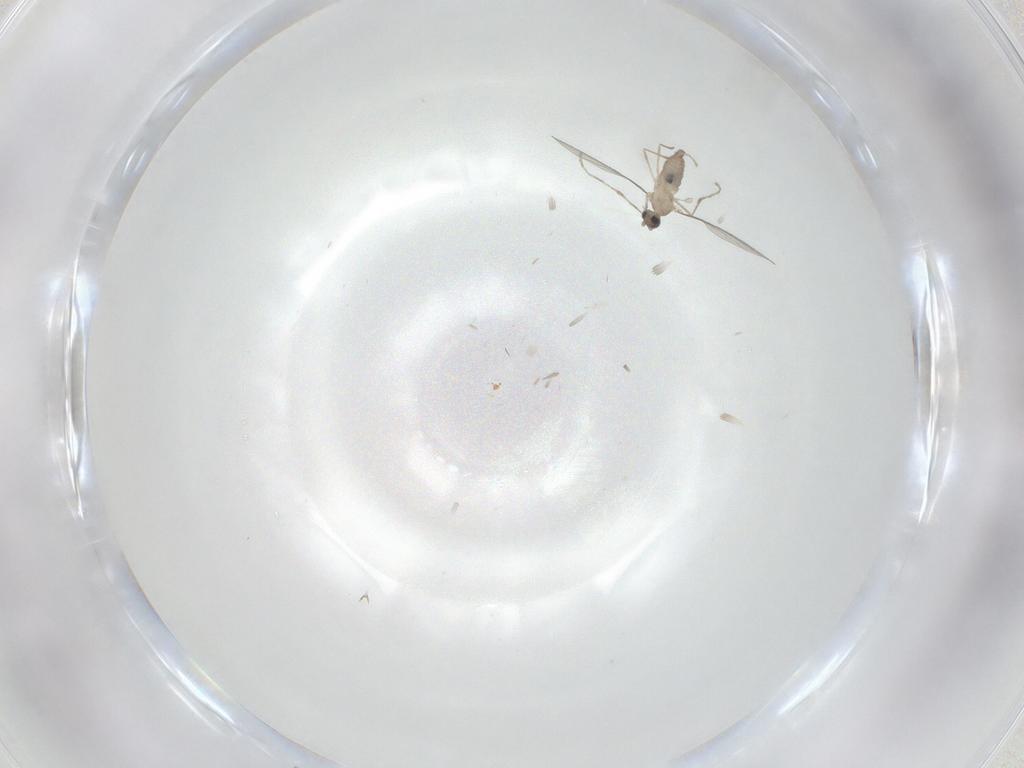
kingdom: Animalia
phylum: Arthropoda
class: Insecta
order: Diptera
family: Cecidomyiidae
